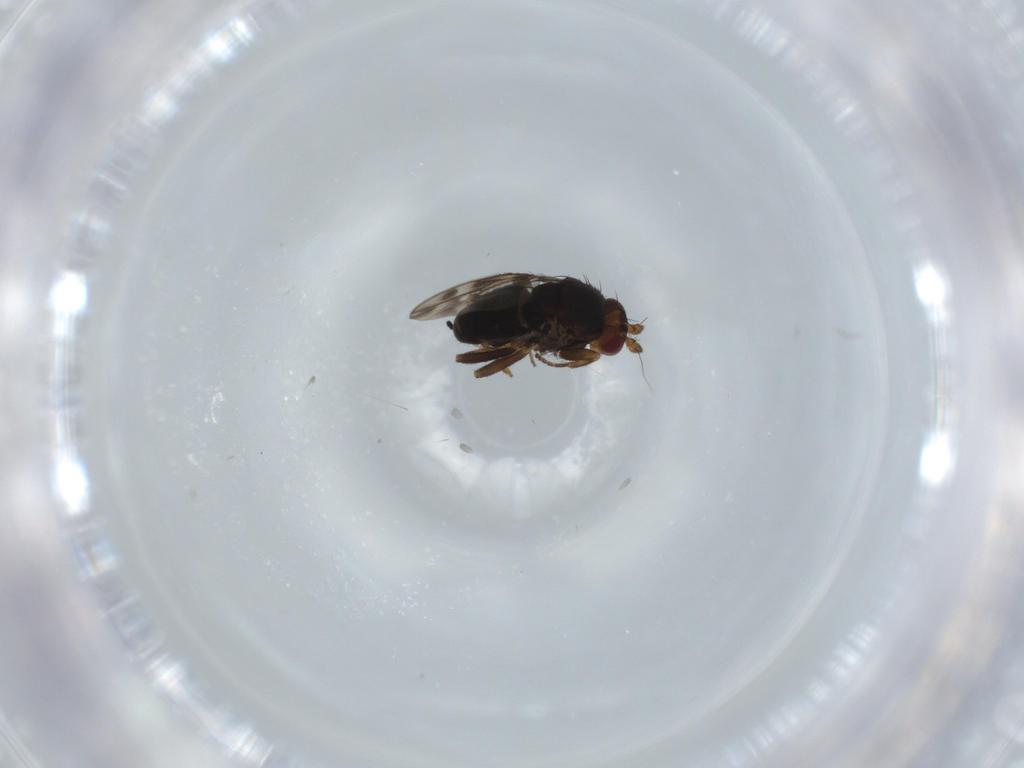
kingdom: Animalia
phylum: Arthropoda
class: Insecta
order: Diptera
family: Sphaeroceridae
